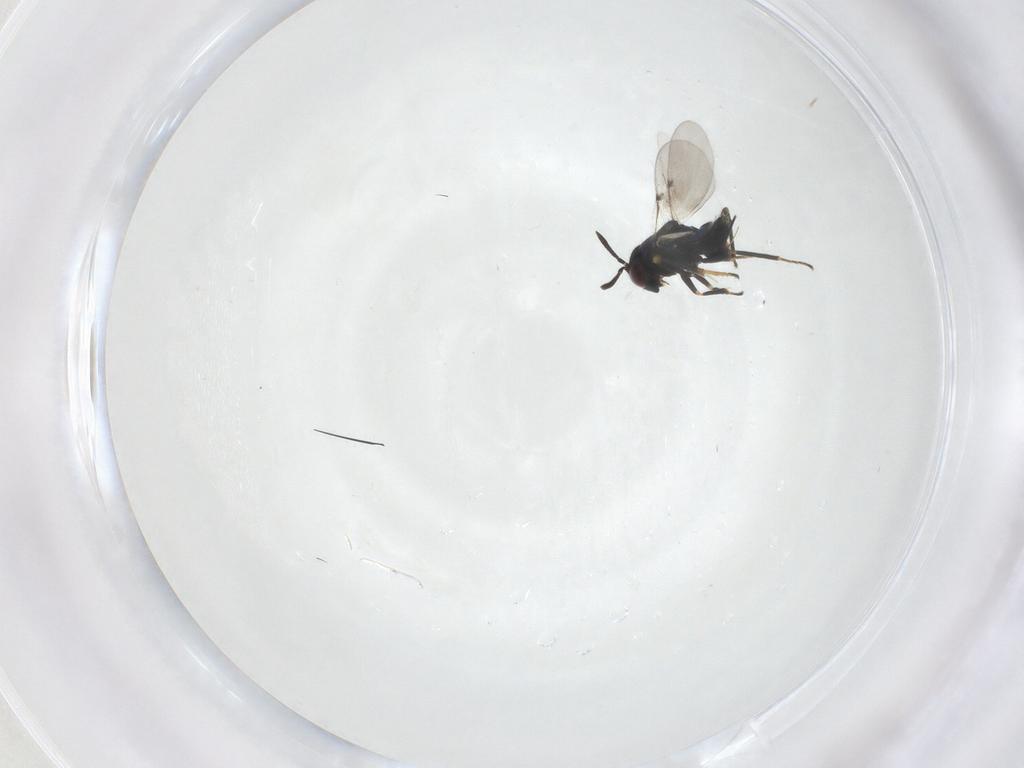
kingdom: Animalia
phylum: Arthropoda
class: Insecta
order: Hymenoptera
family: Encyrtidae
